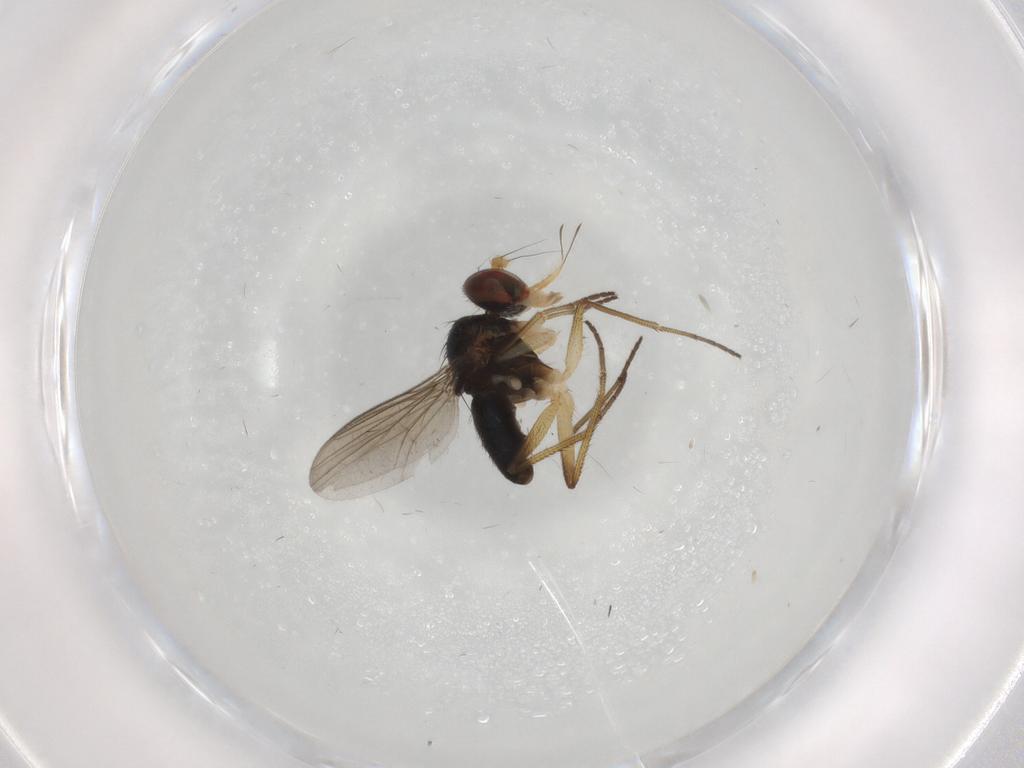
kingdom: Animalia
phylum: Arthropoda
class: Insecta
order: Diptera
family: Dolichopodidae
